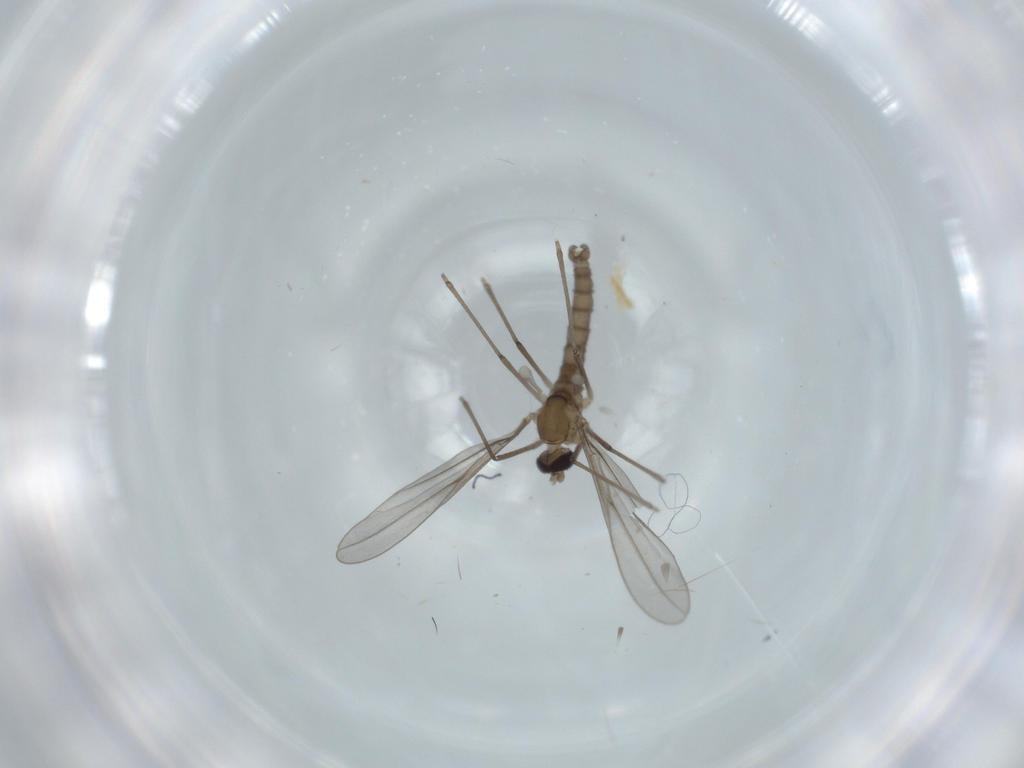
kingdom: Animalia
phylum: Arthropoda
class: Insecta
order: Diptera
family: Cecidomyiidae
